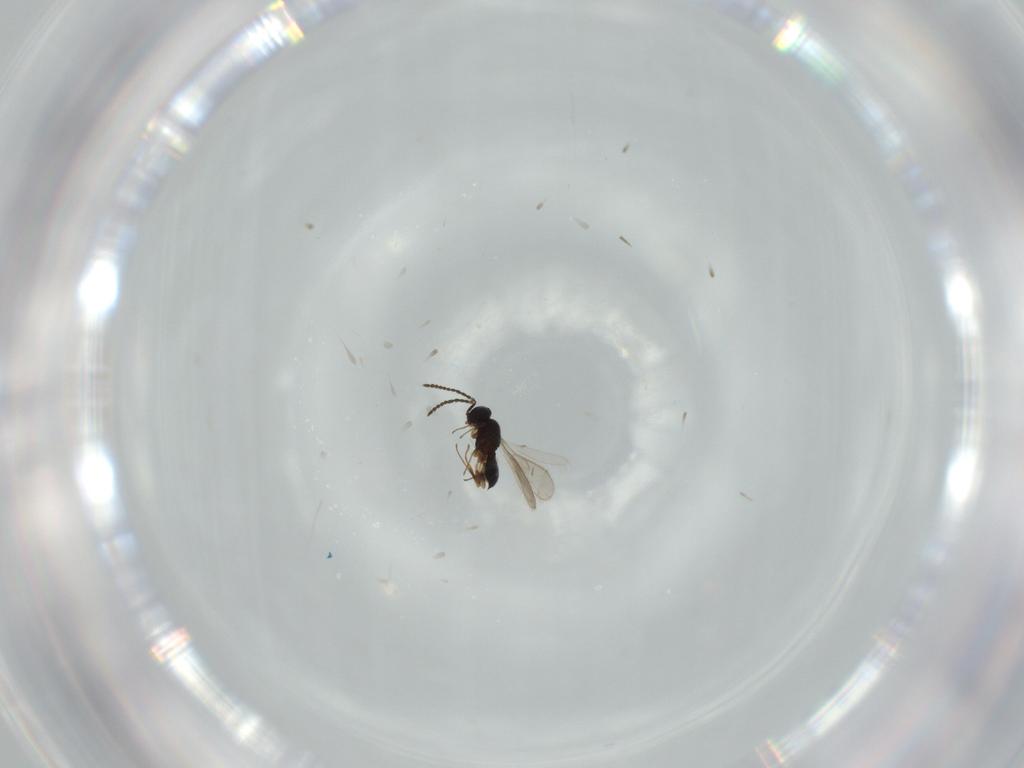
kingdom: Animalia
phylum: Arthropoda
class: Insecta
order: Hymenoptera
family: Scelionidae
